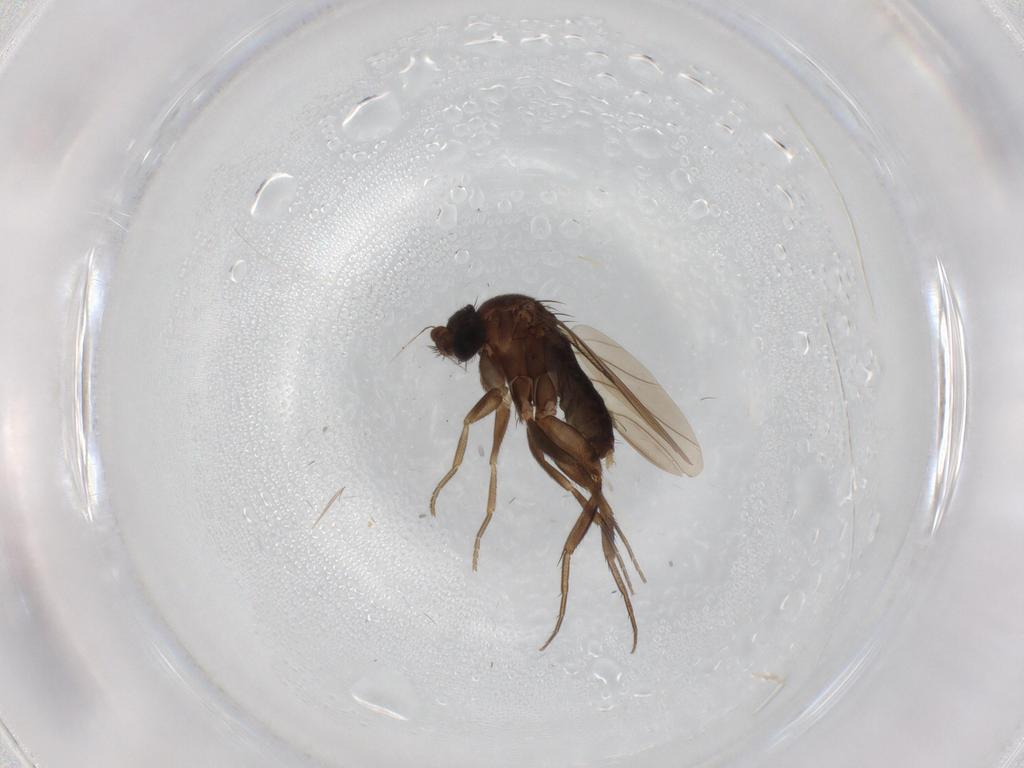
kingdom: Animalia
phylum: Arthropoda
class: Insecta
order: Diptera
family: Phoridae
